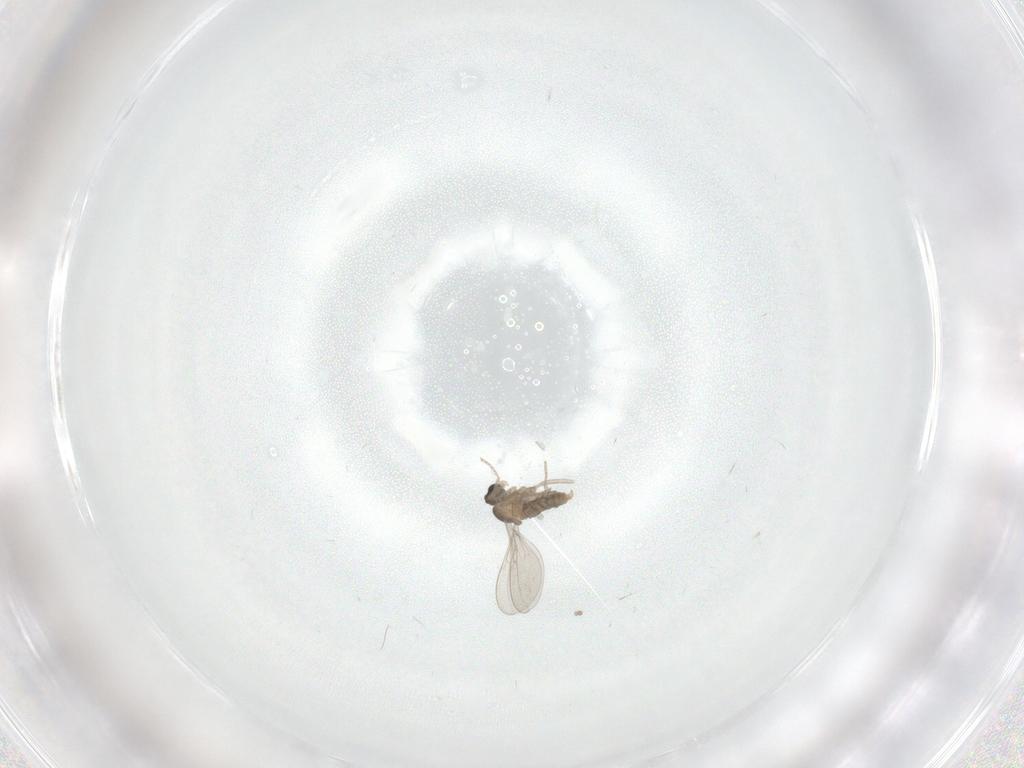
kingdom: Animalia
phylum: Arthropoda
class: Insecta
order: Diptera
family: Cecidomyiidae
